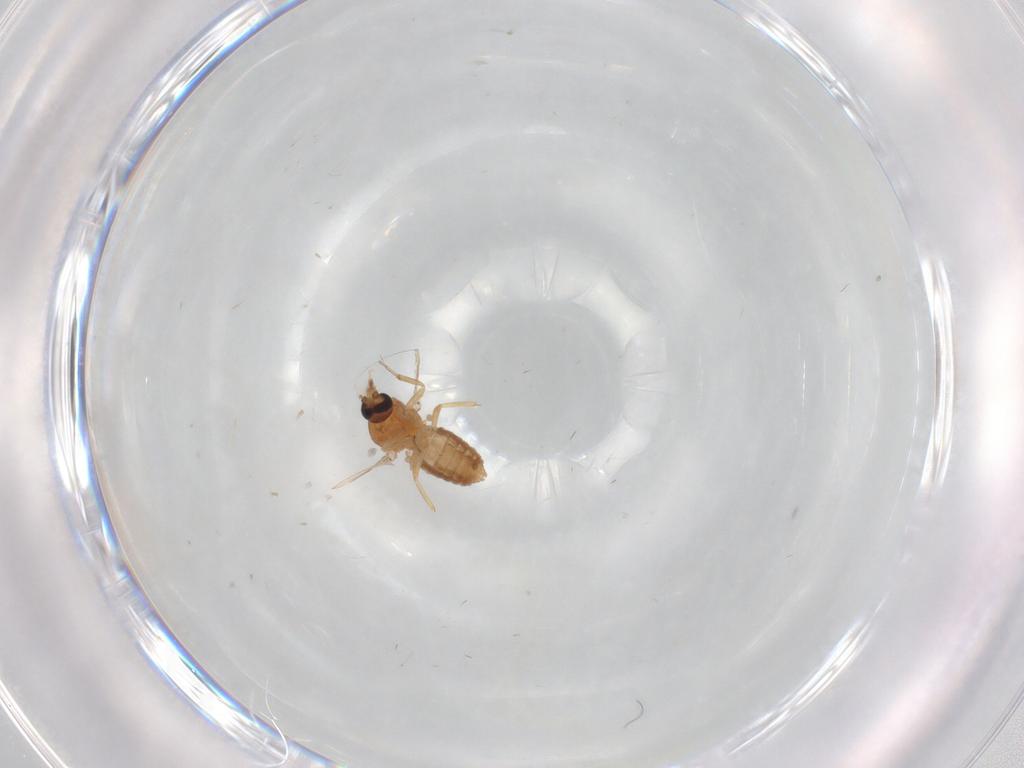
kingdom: Animalia
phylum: Arthropoda
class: Insecta
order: Diptera
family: Ceratopogonidae
